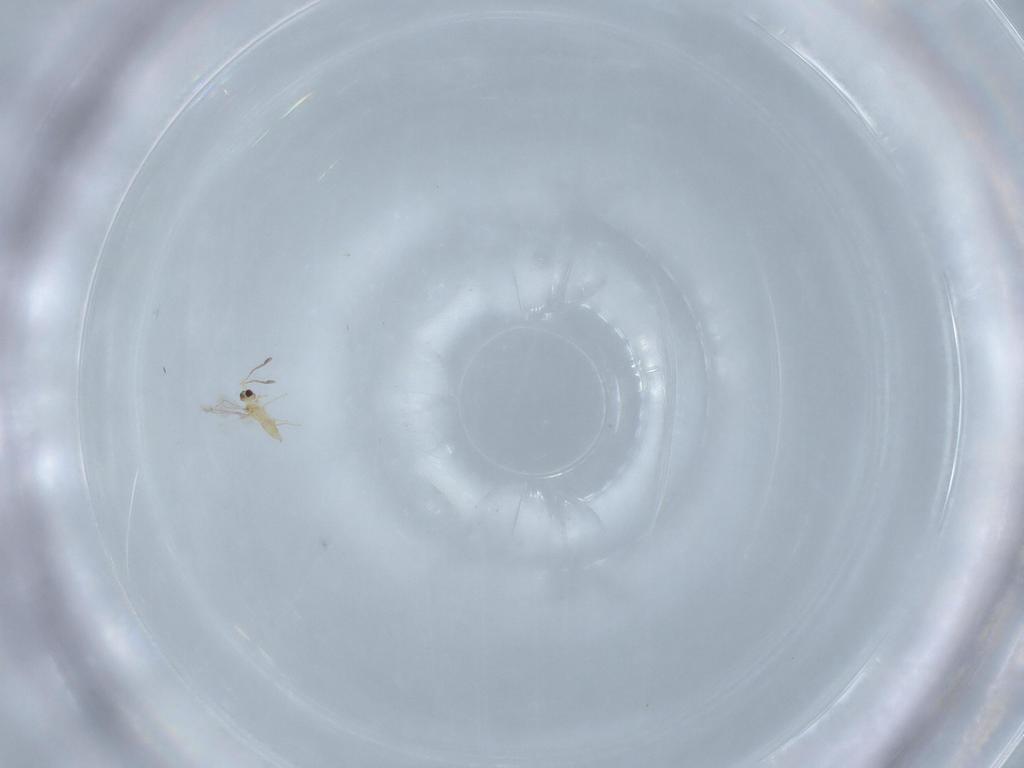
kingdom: Animalia
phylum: Arthropoda
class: Insecta
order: Hymenoptera
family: Mymaridae
